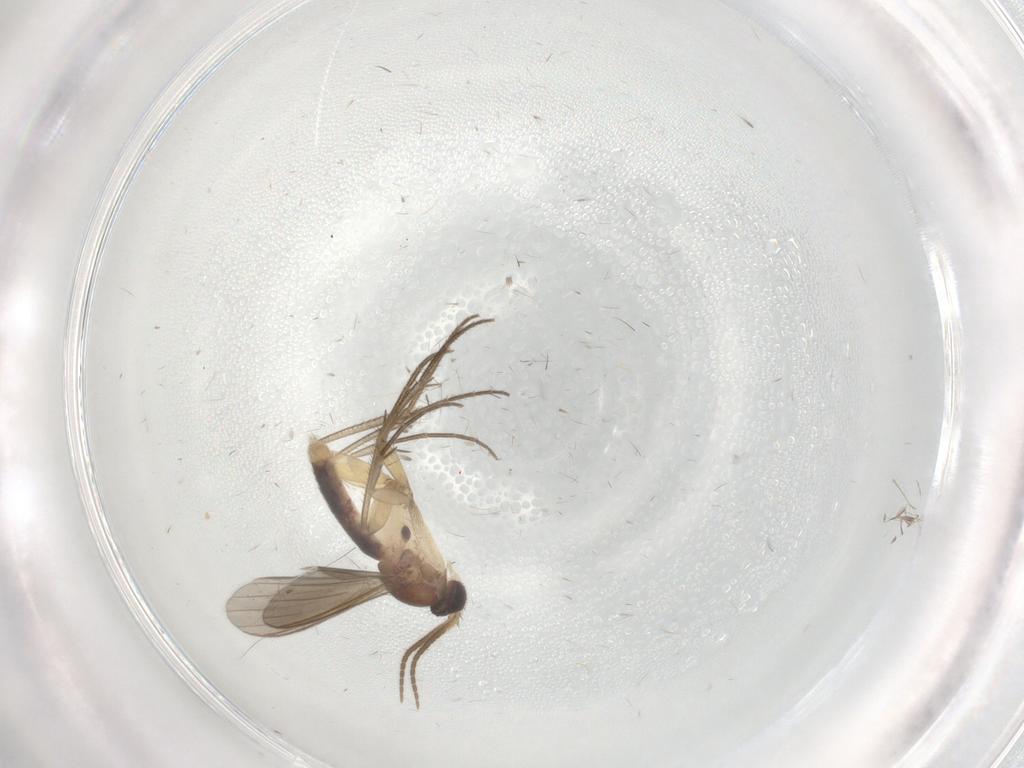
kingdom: Animalia
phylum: Arthropoda
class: Insecta
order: Diptera
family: Mycetophilidae
